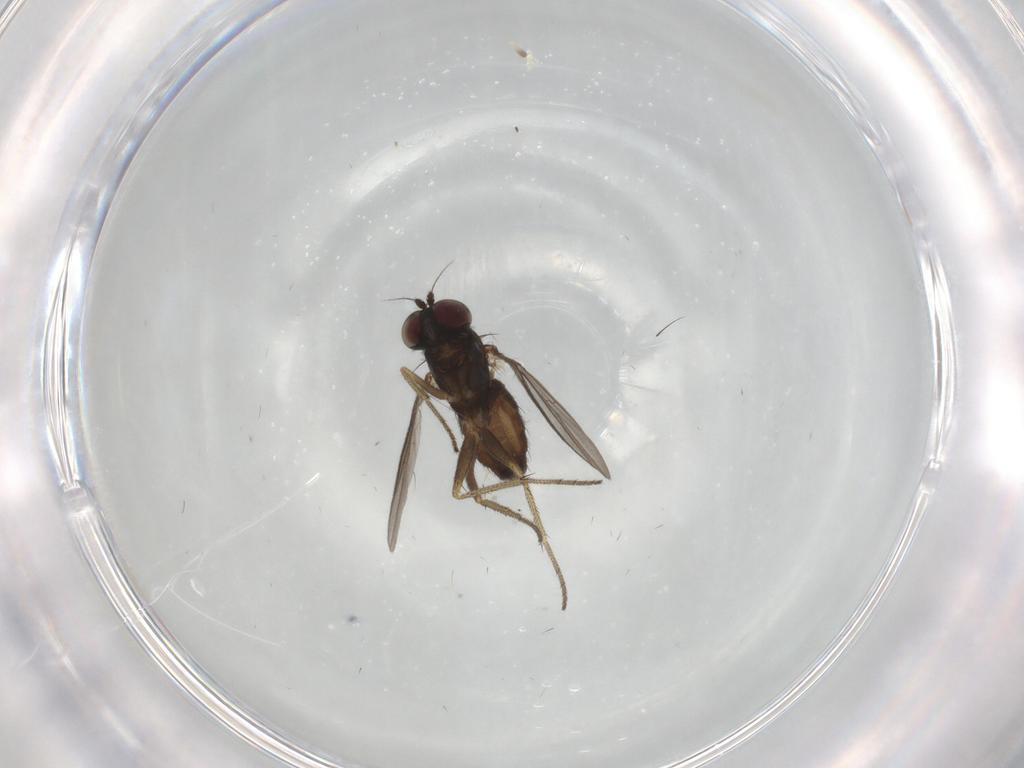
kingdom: Animalia
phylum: Arthropoda
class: Insecta
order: Diptera
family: Dolichopodidae
